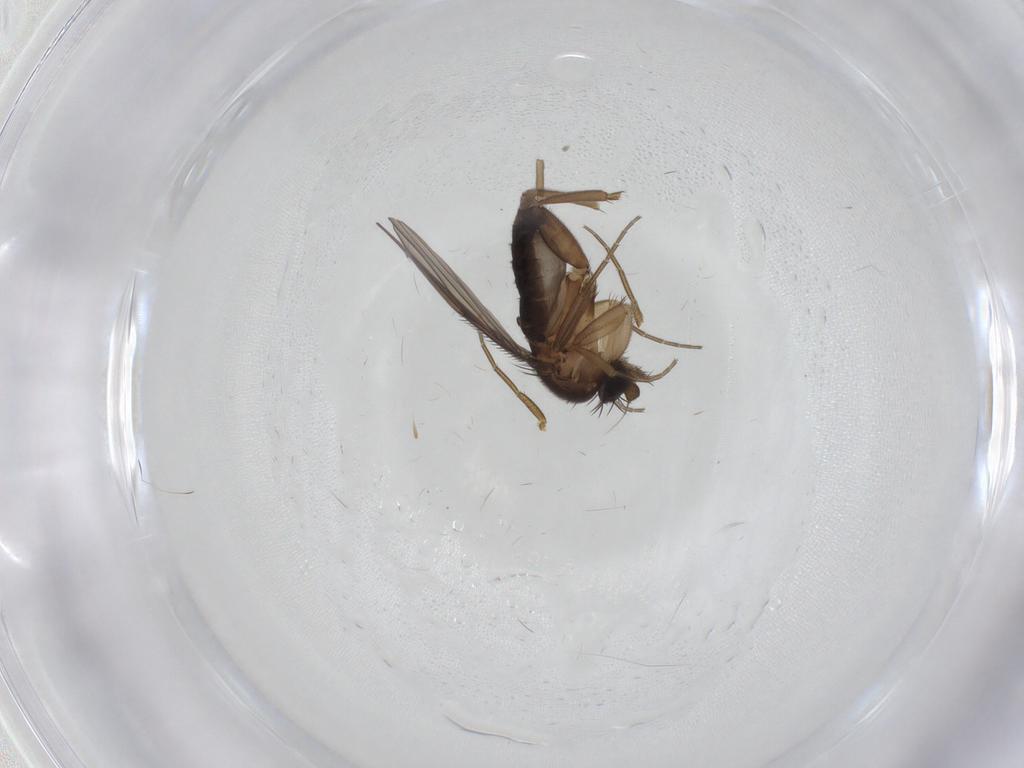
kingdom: Animalia
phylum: Arthropoda
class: Insecta
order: Diptera
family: Phoridae
